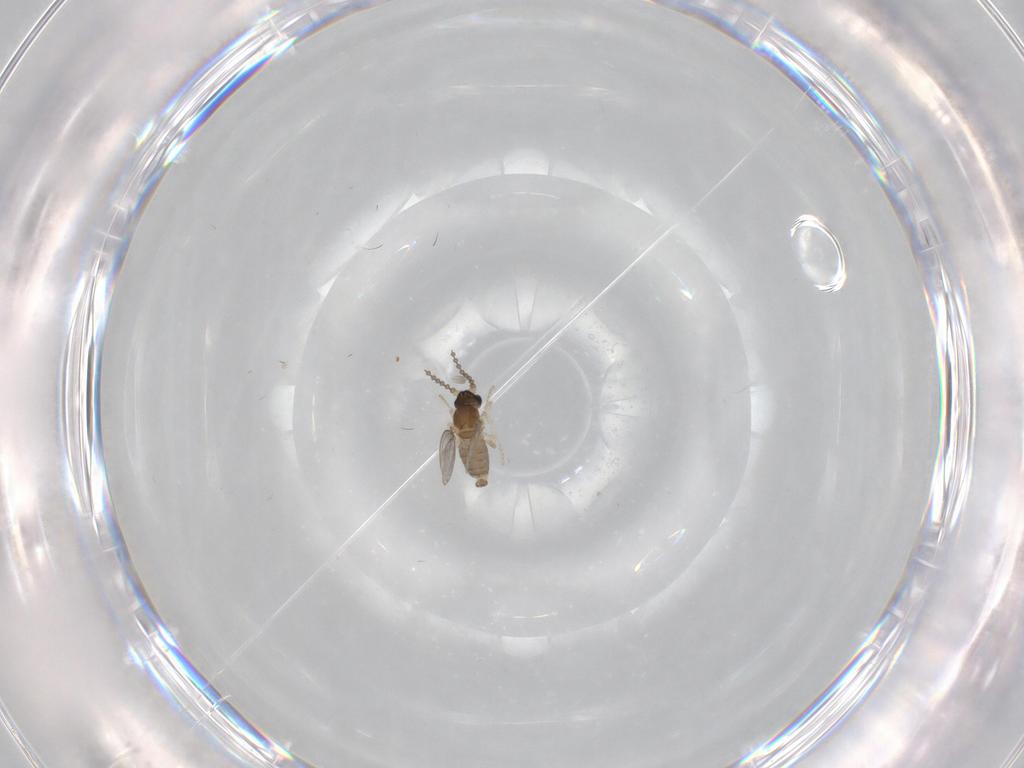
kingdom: Animalia
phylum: Arthropoda
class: Insecta
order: Diptera
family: Cecidomyiidae
